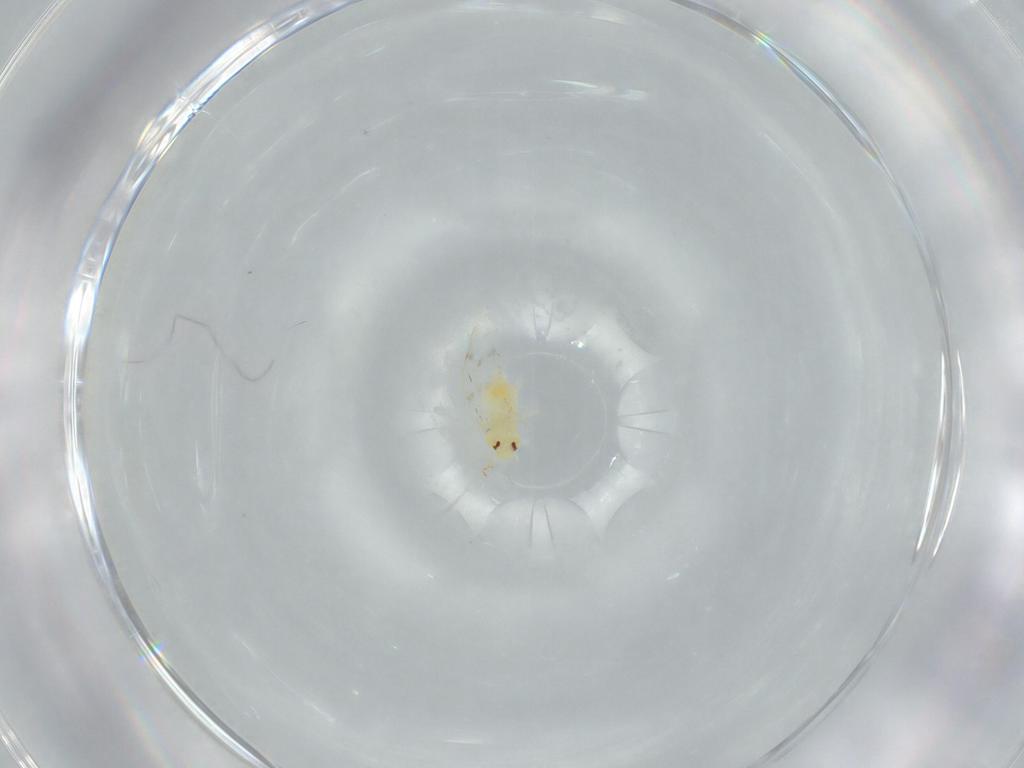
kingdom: Animalia
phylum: Arthropoda
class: Insecta
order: Hemiptera
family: Aleyrodidae
